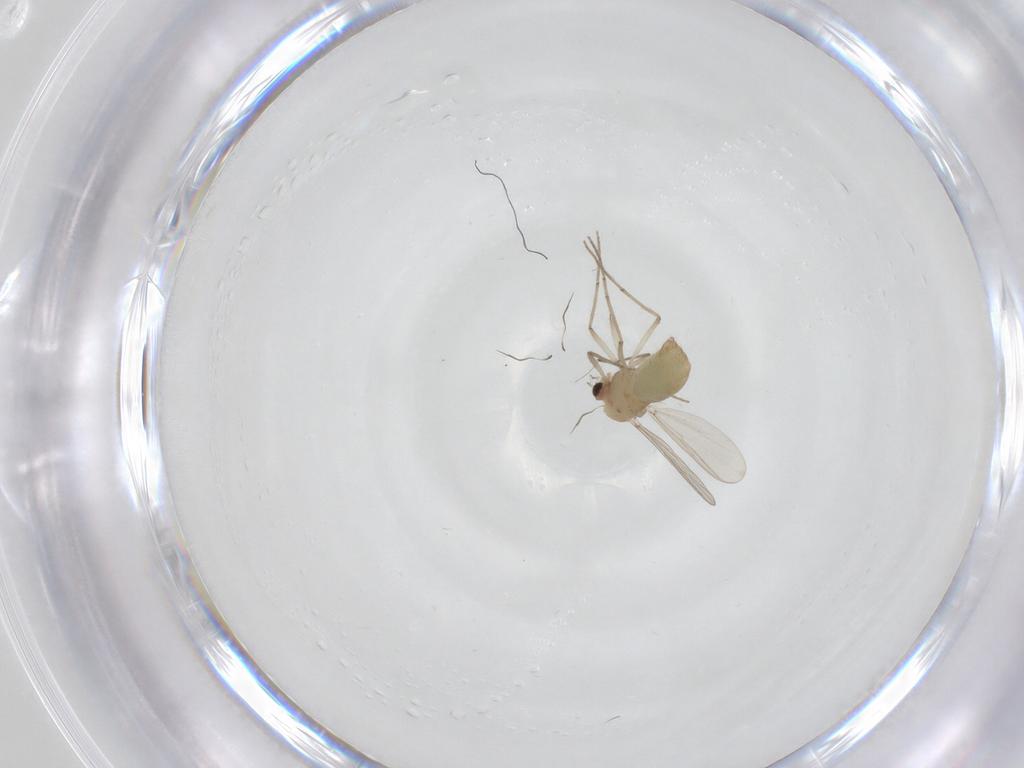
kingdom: Animalia
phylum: Arthropoda
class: Insecta
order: Diptera
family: Chironomidae
